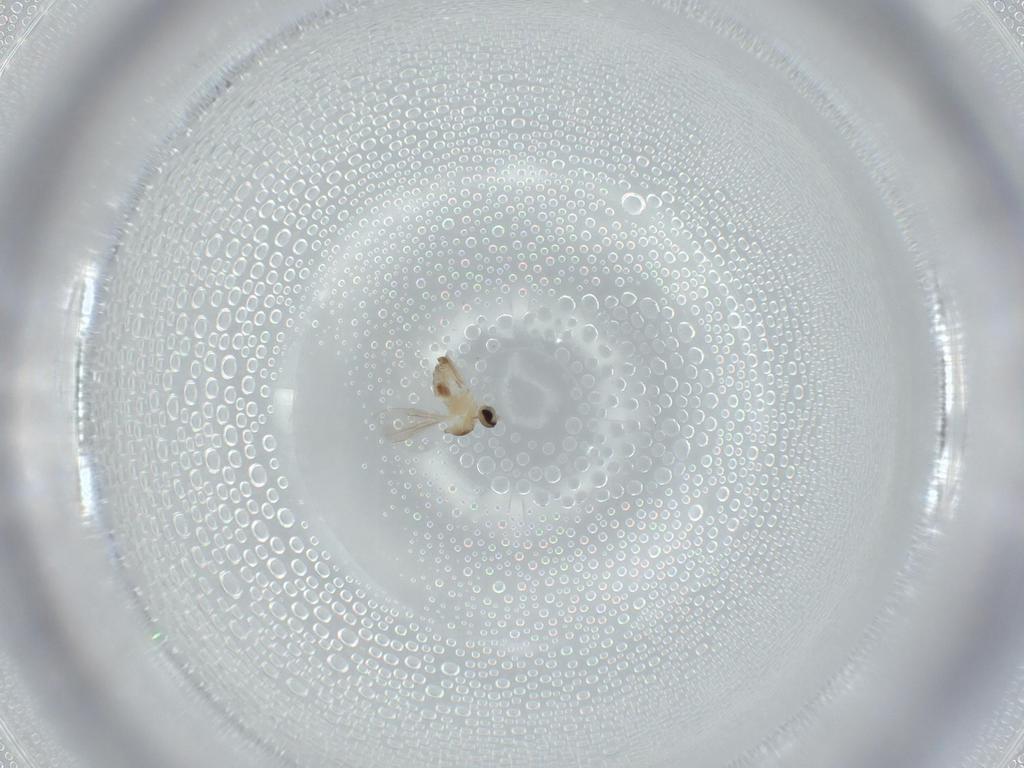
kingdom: Animalia
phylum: Arthropoda
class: Insecta
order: Diptera
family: Cecidomyiidae
